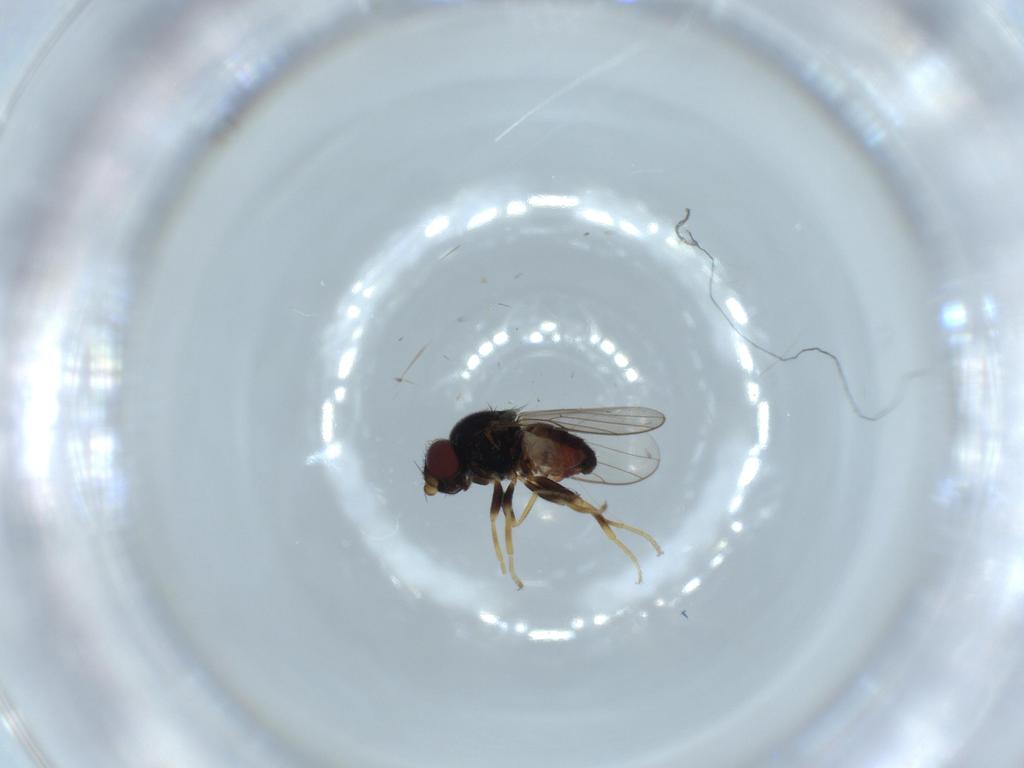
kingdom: Animalia
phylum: Arthropoda
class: Insecta
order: Diptera
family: Chloropidae
